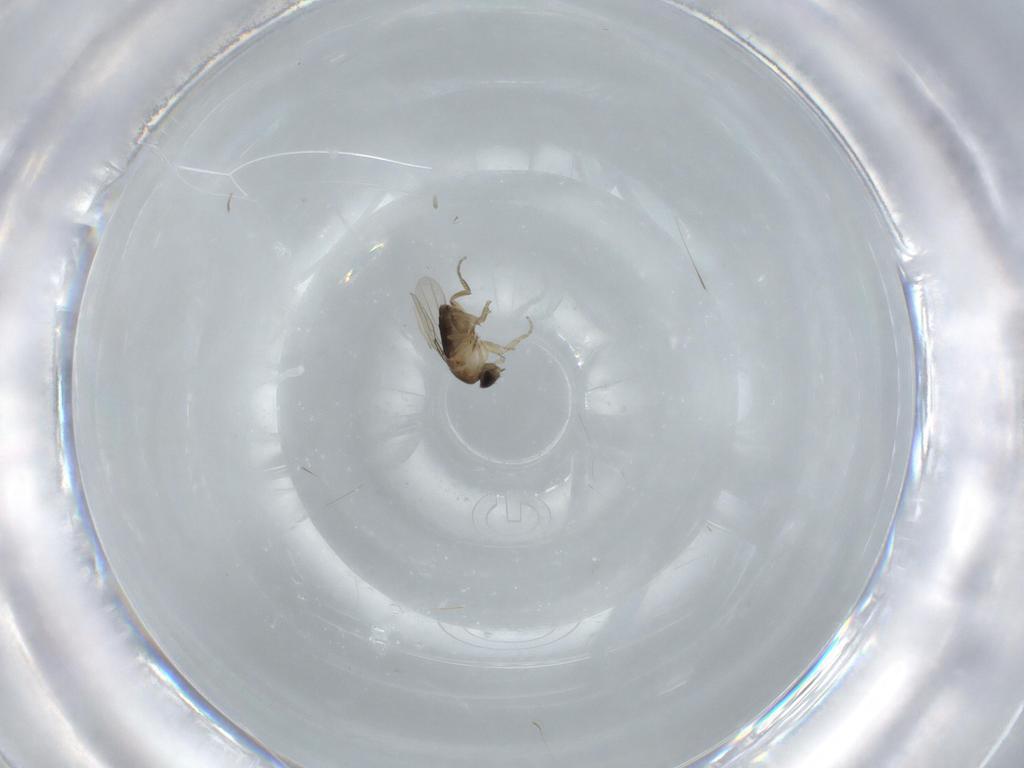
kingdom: Animalia
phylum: Arthropoda
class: Insecta
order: Diptera
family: Phoridae
